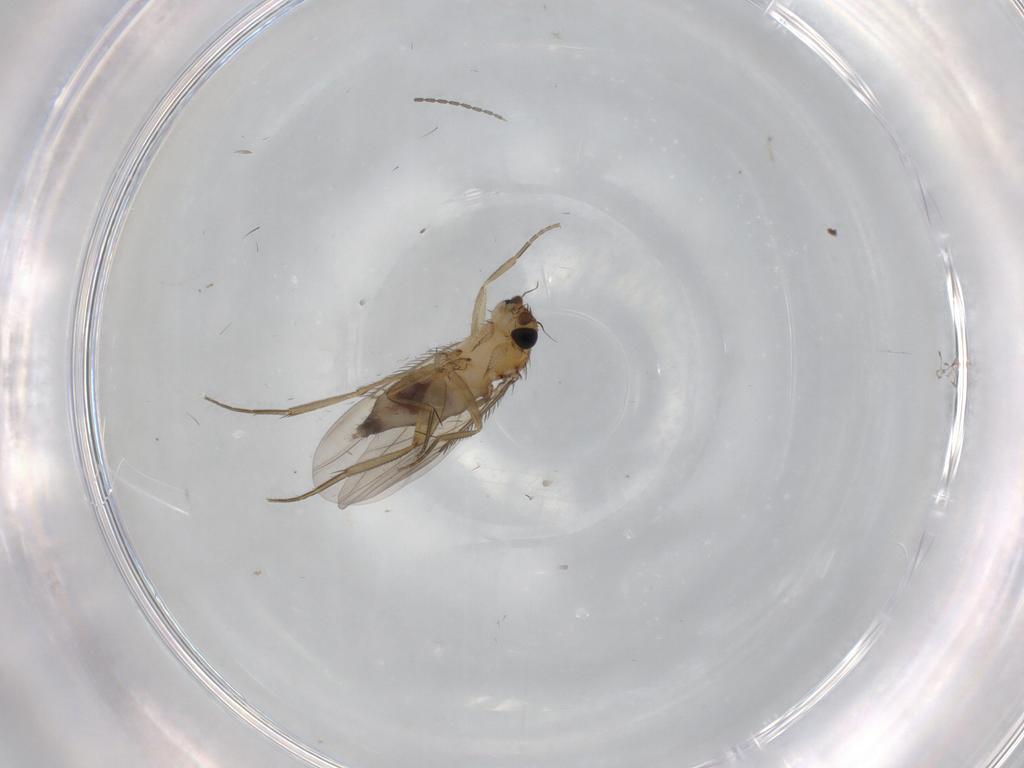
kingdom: Animalia
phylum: Arthropoda
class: Insecta
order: Diptera
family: Phoridae
